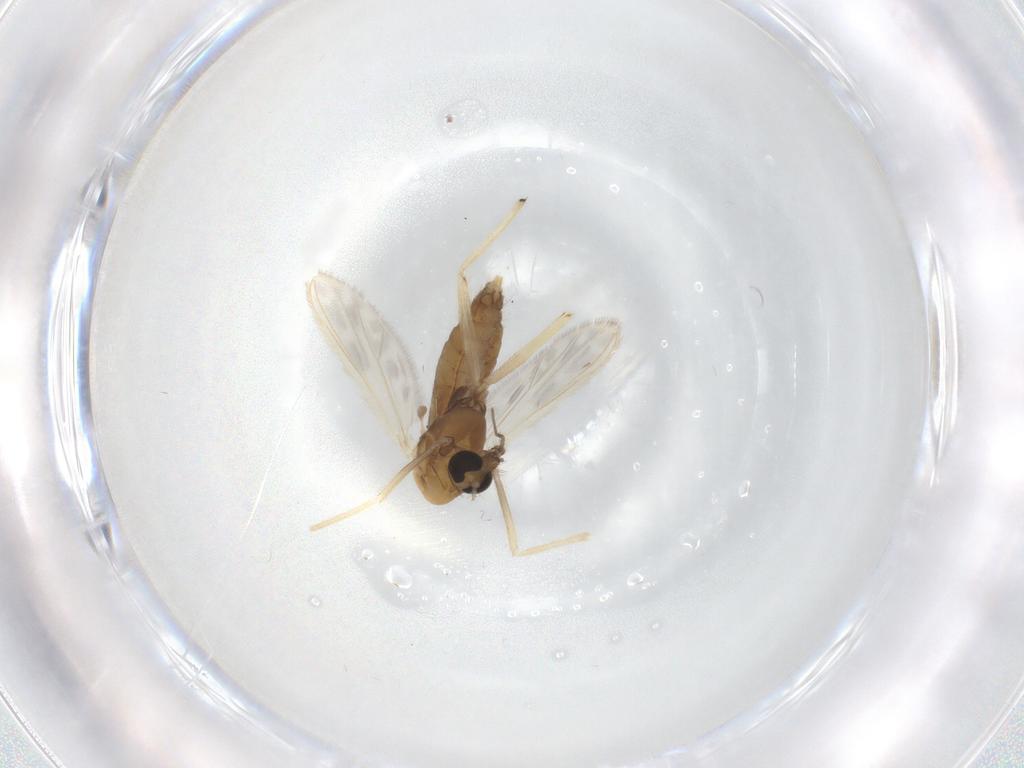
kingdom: Animalia
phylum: Arthropoda
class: Insecta
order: Diptera
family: Chironomidae
